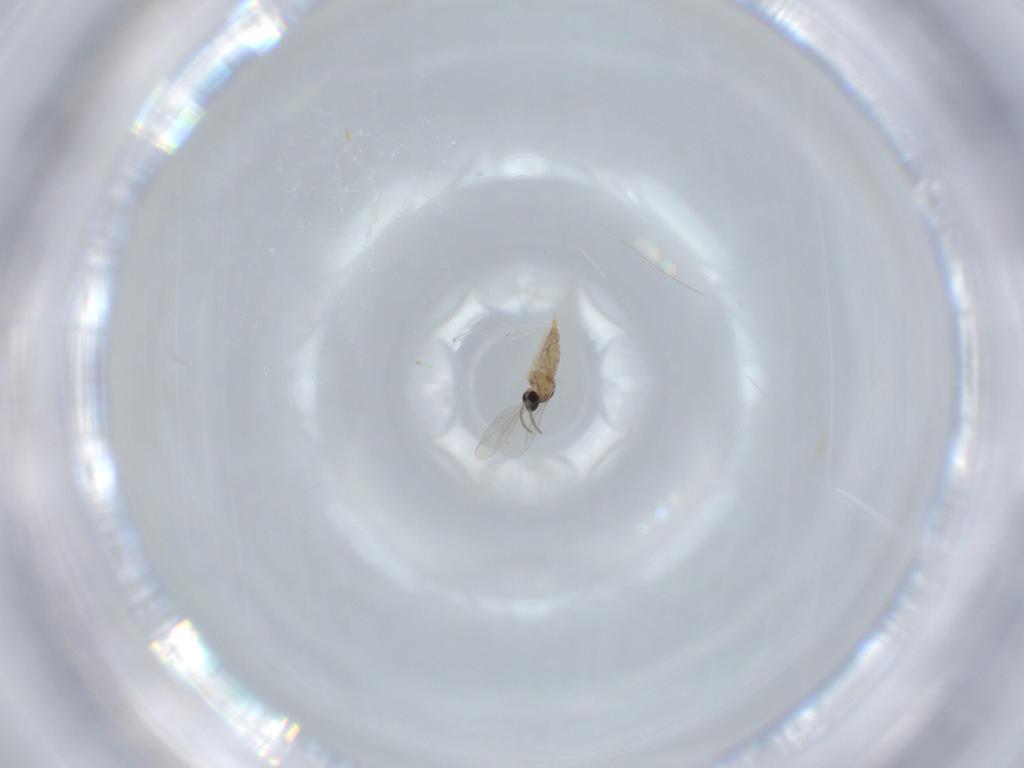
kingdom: Animalia
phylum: Arthropoda
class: Insecta
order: Diptera
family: Cecidomyiidae
